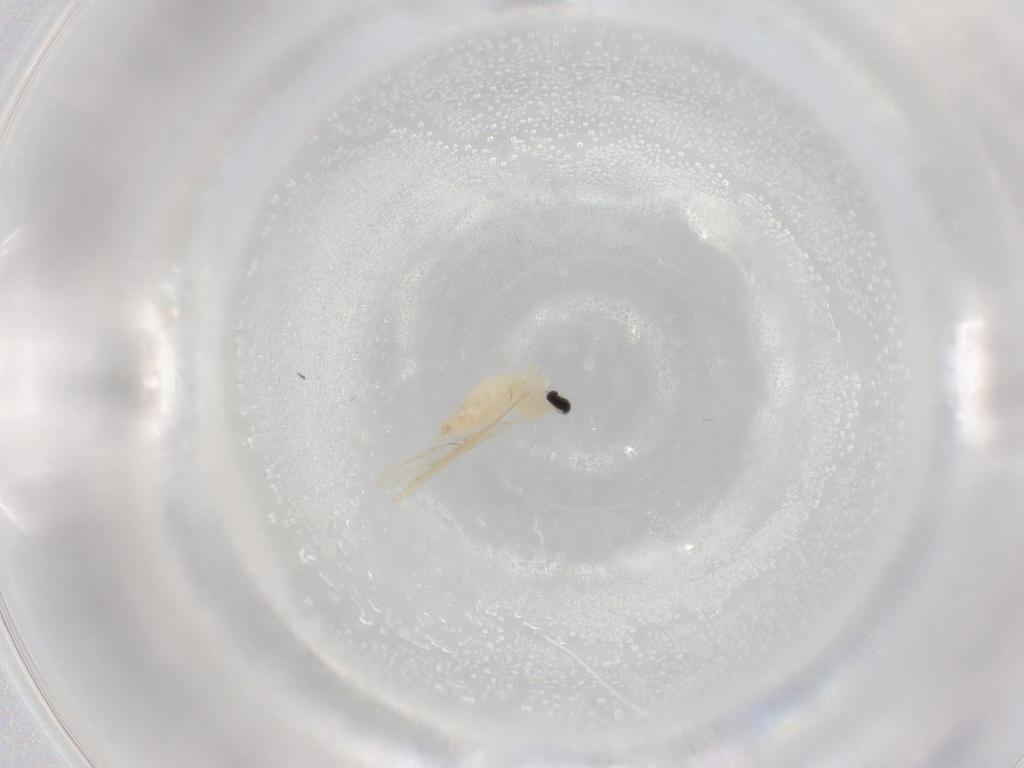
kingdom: Animalia
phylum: Arthropoda
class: Insecta
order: Diptera
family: Cecidomyiidae
